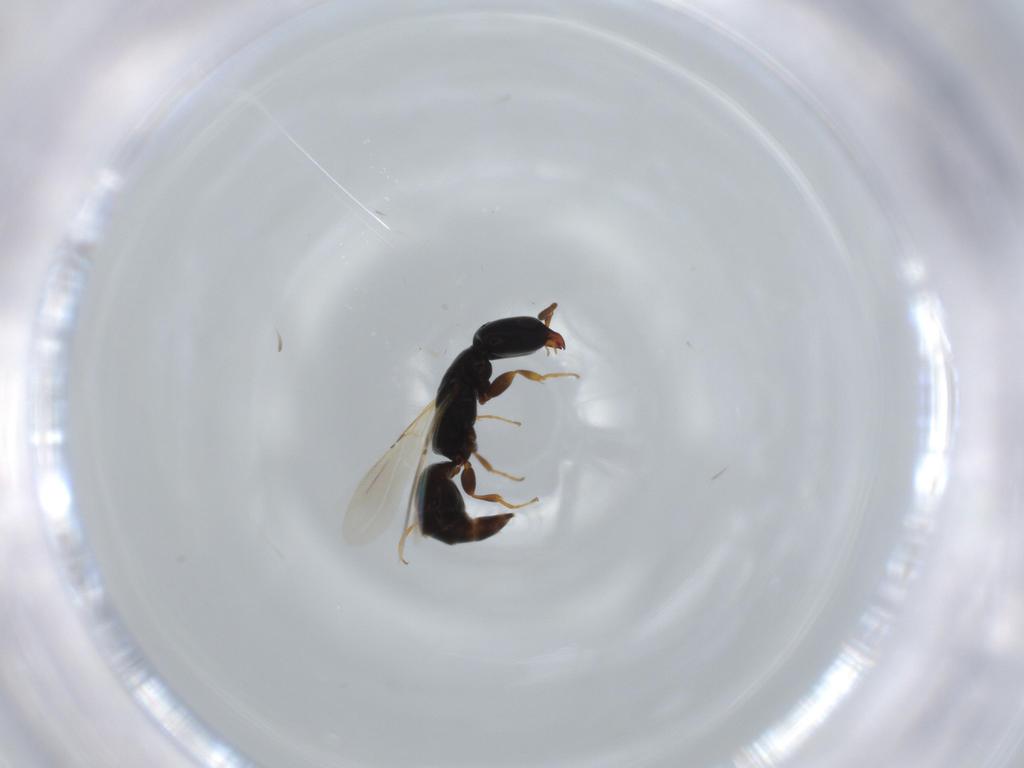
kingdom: Animalia
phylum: Arthropoda
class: Insecta
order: Hymenoptera
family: Bethylidae
